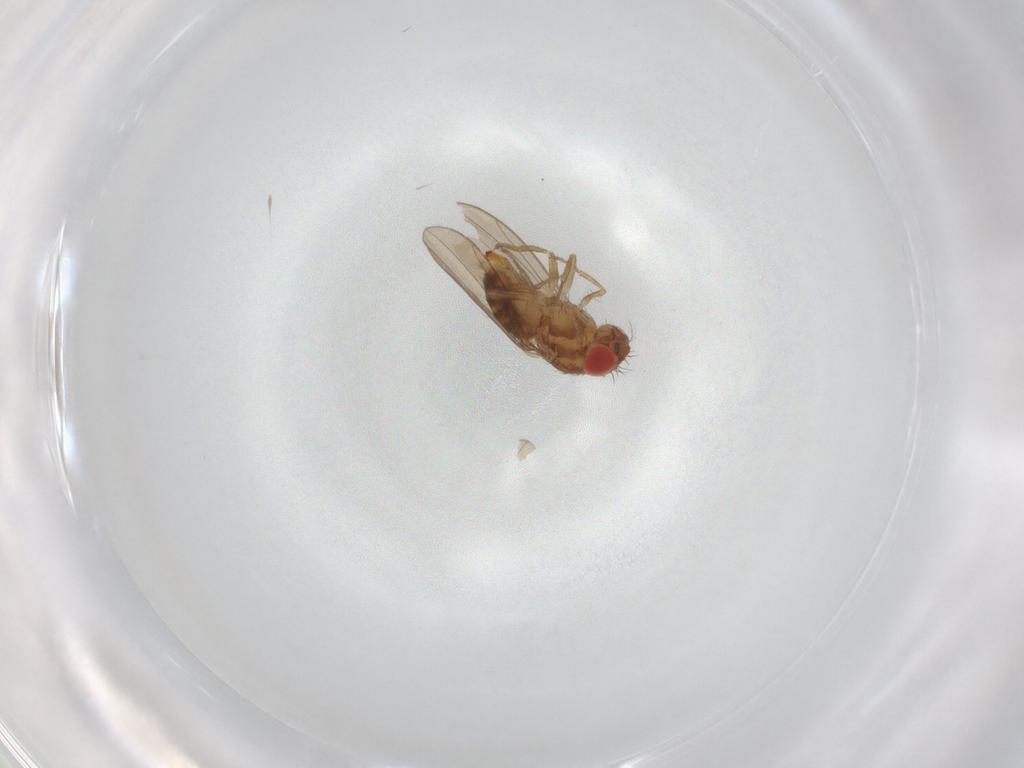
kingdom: Animalia
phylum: Arthropoda
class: Insecta
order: Diptera
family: Ephydridae
